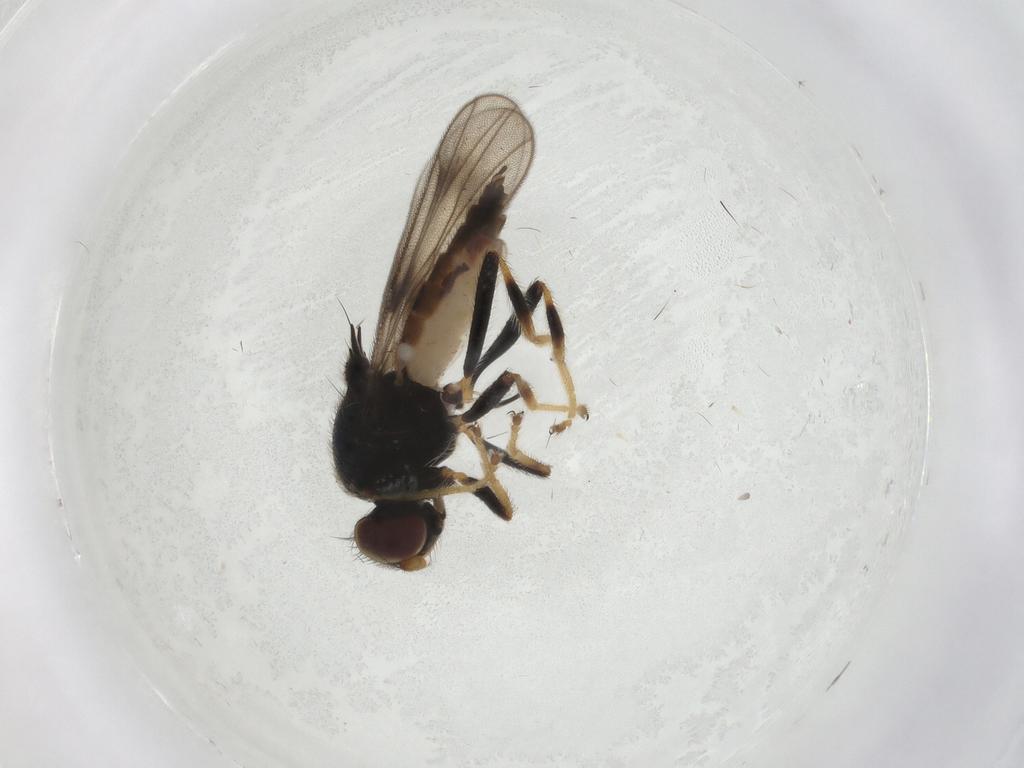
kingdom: Animalia
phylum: Arthropoda
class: Insecta
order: Diptera
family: Chloropidae
